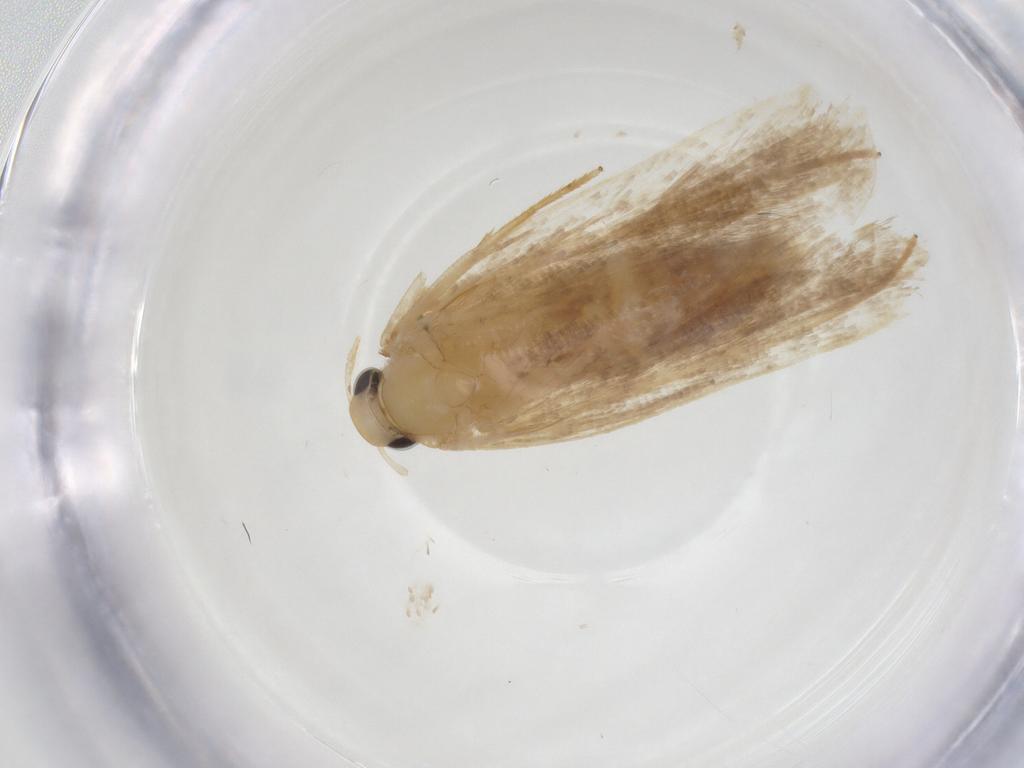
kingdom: Animalia
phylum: Arthropoda
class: Insecta
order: Lepidoptera
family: Gelechiidae
